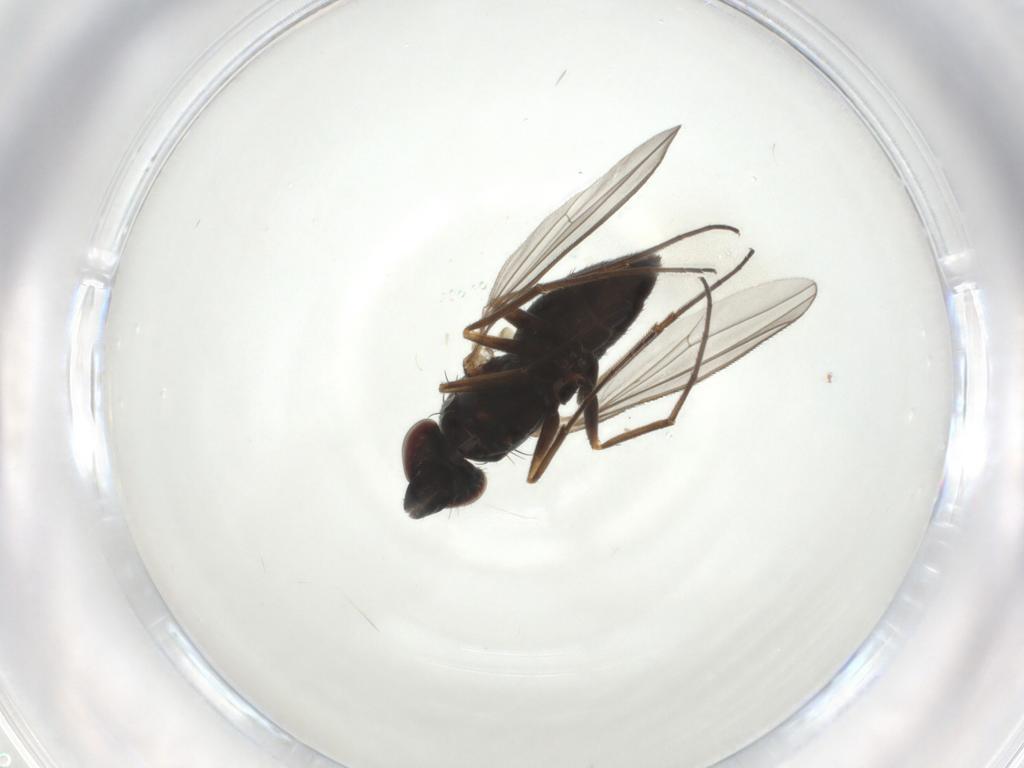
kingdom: Animalia
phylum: Arthropoda
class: Insecta
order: Diptera
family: Dolichopodidae
